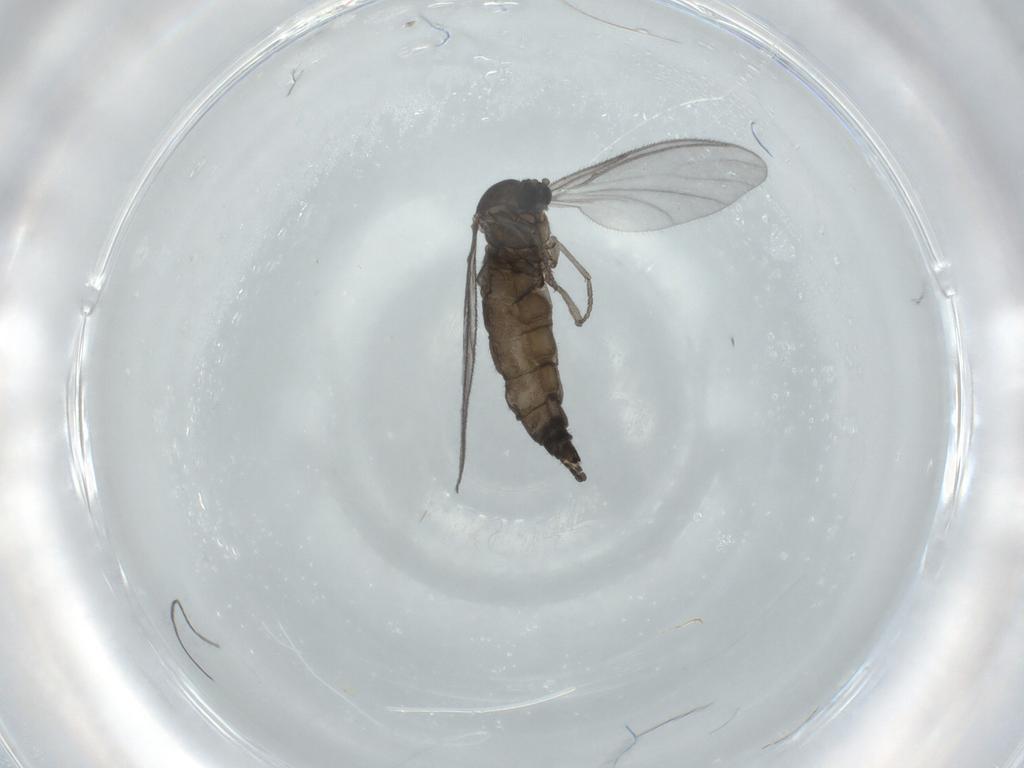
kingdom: Animalia
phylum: Arthropoda
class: Insecta
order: Diptera
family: Sciaridae
